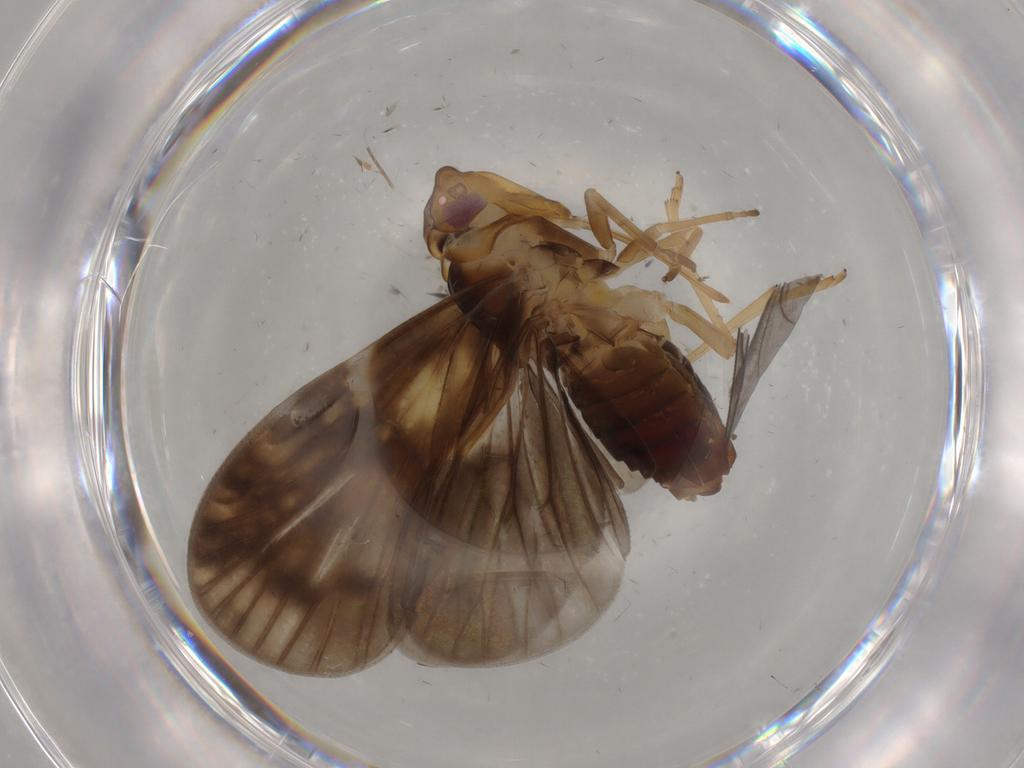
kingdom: Animalia
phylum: Arthropoda
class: Insecta
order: Hemiptera
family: Cixiidae
